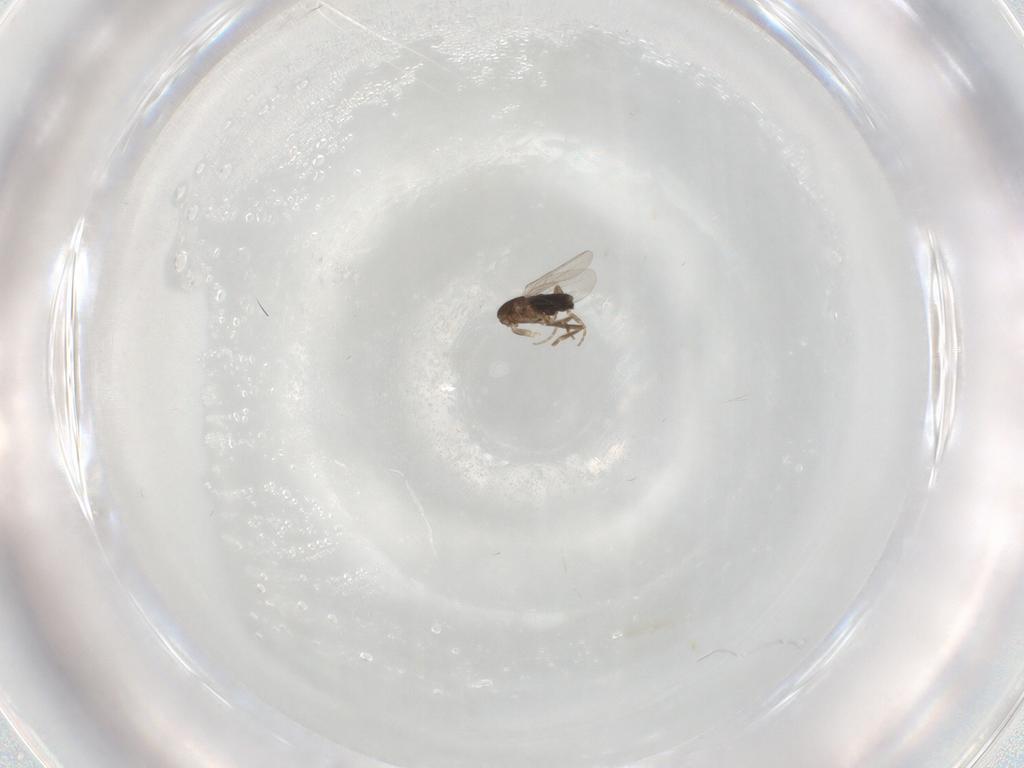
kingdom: Animalia
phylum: Arthropoda
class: Insecta
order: Diptera
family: Phoridae
